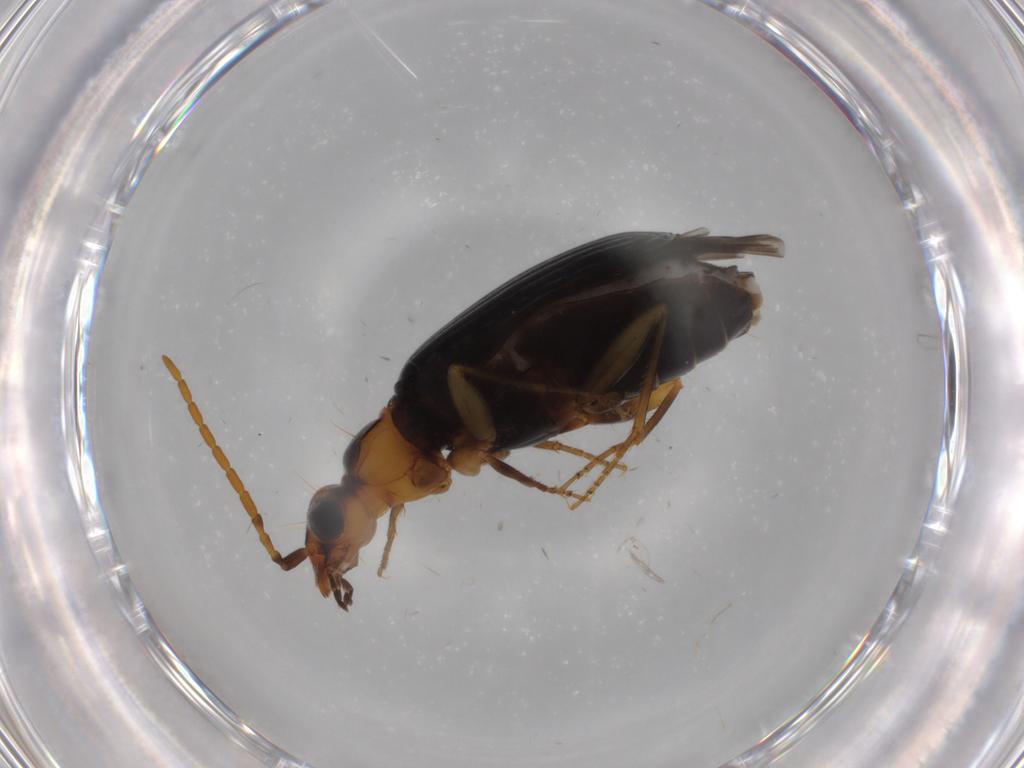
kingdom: Animalia
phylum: Arthropoda
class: Insecta
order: Coleoptera
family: Carabidae
